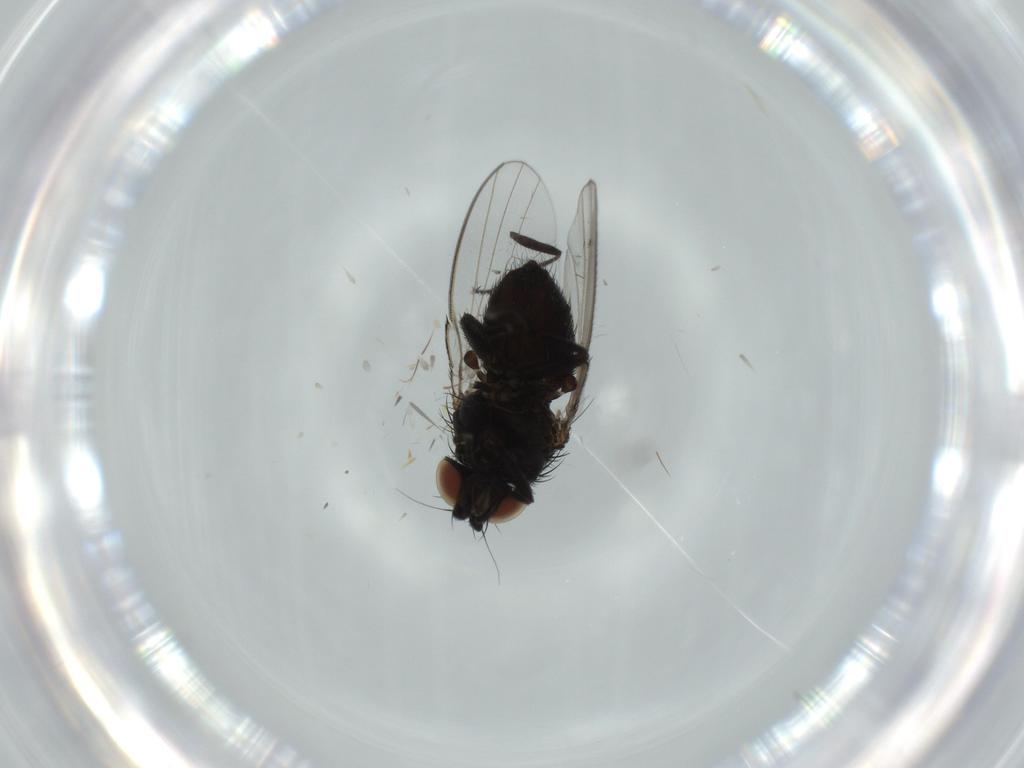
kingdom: Animalia
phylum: Arthropoda
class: Insecta
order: Diptera
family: Milichiidae
